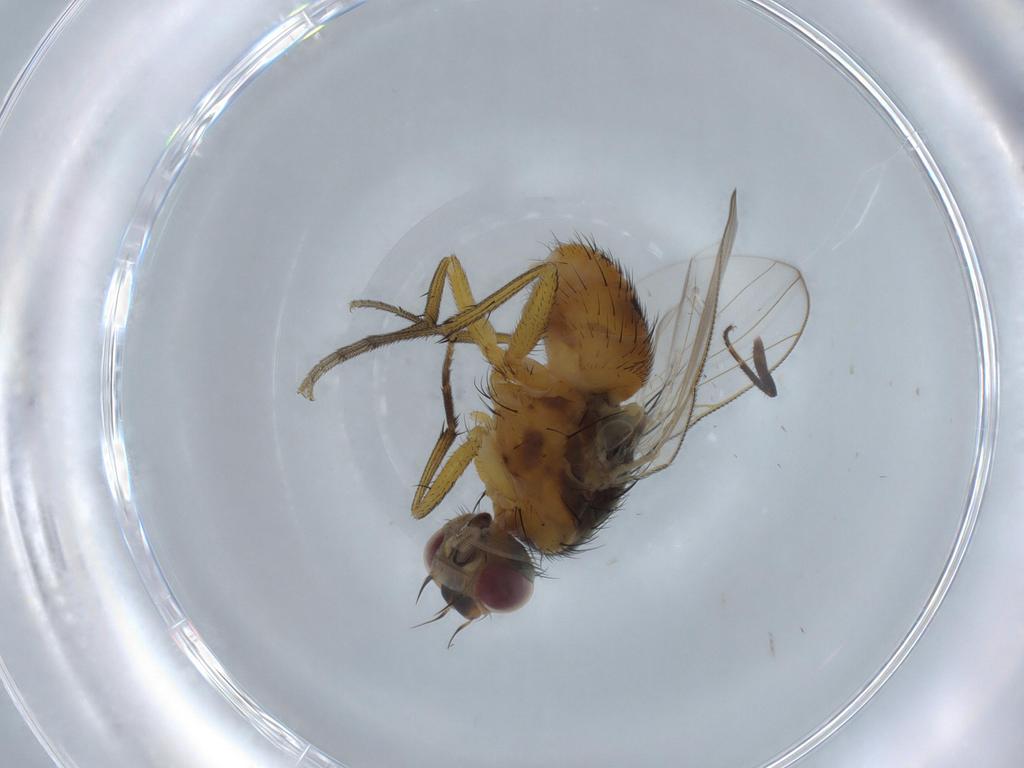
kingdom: Animalia
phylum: Arthropoda
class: Insecta
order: Diptera
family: Muscidae
